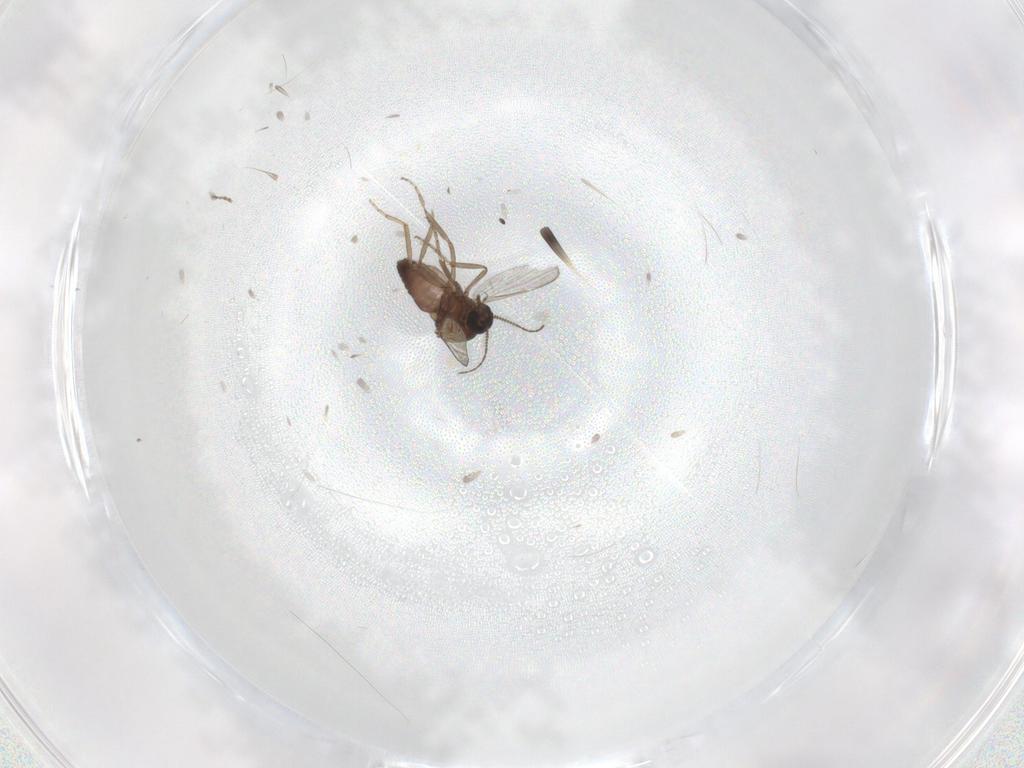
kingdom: Animalia
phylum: Arthropoda
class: Insecta
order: Diptera
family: Ceratopogonidae
